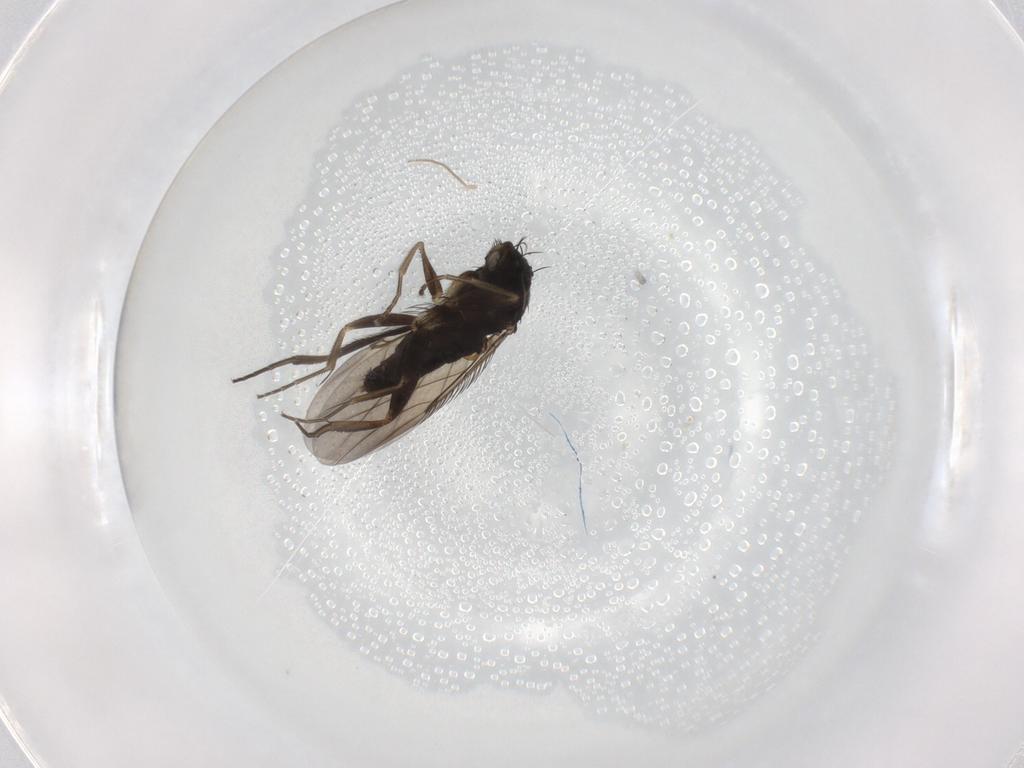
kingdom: Animalia
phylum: Arthropoda
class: Insecta
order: Diptera
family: Phoridae
